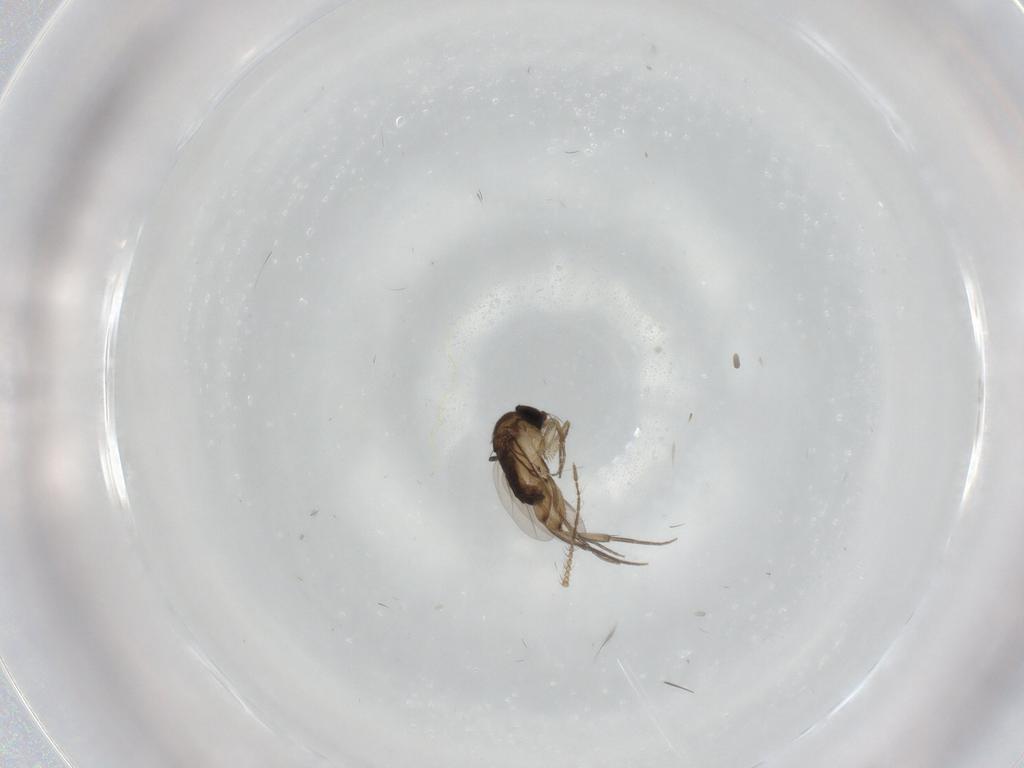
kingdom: Animalia
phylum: Arthropoda
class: Insecta
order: Diptera
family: Phoridae
